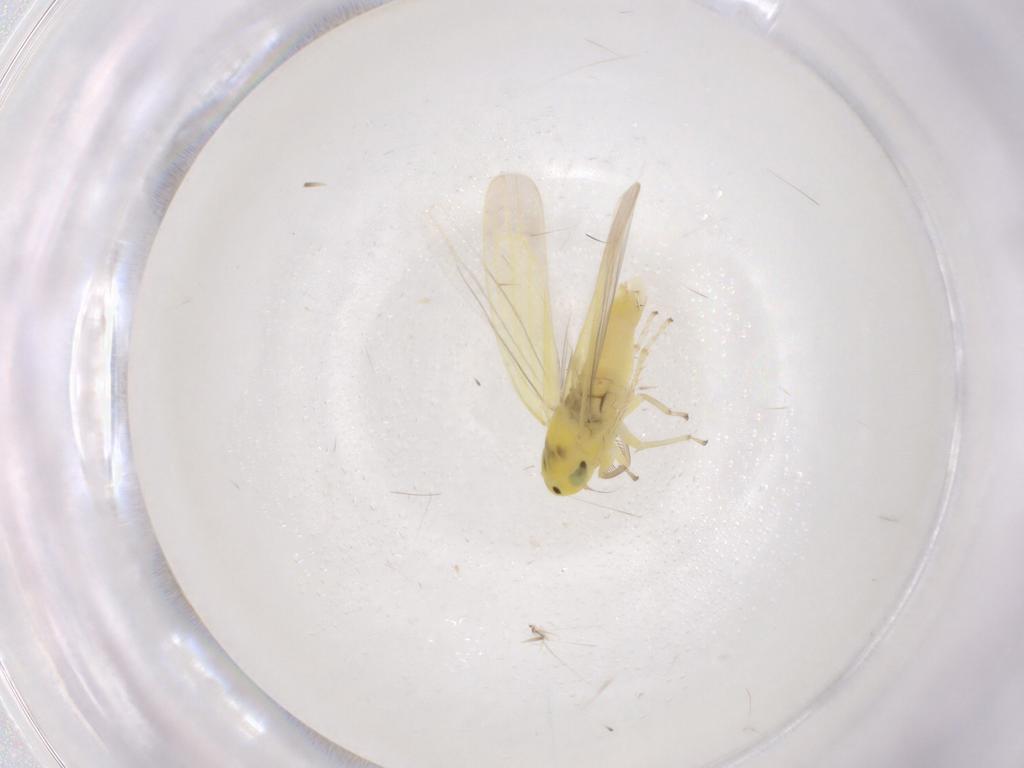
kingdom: Animalia
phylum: Arthropoda
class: Insecta
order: Hemiptera
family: Cicadellidae
